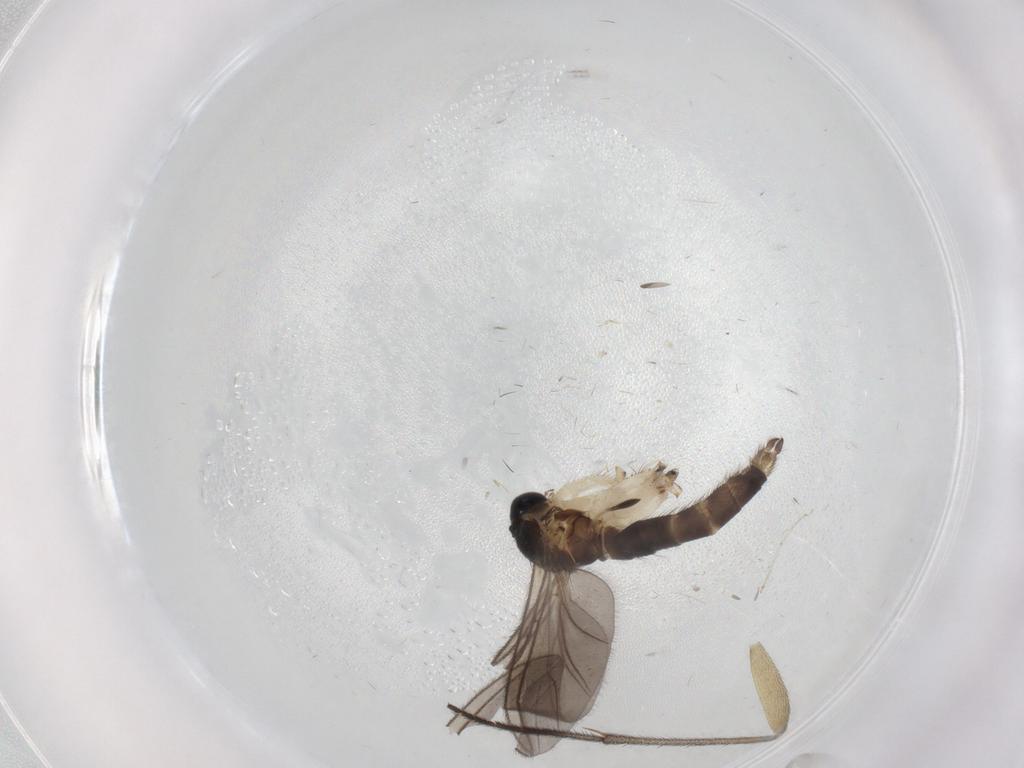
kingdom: Animalia
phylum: Arthropoda
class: Insecta
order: Diptera
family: Sciaridae
